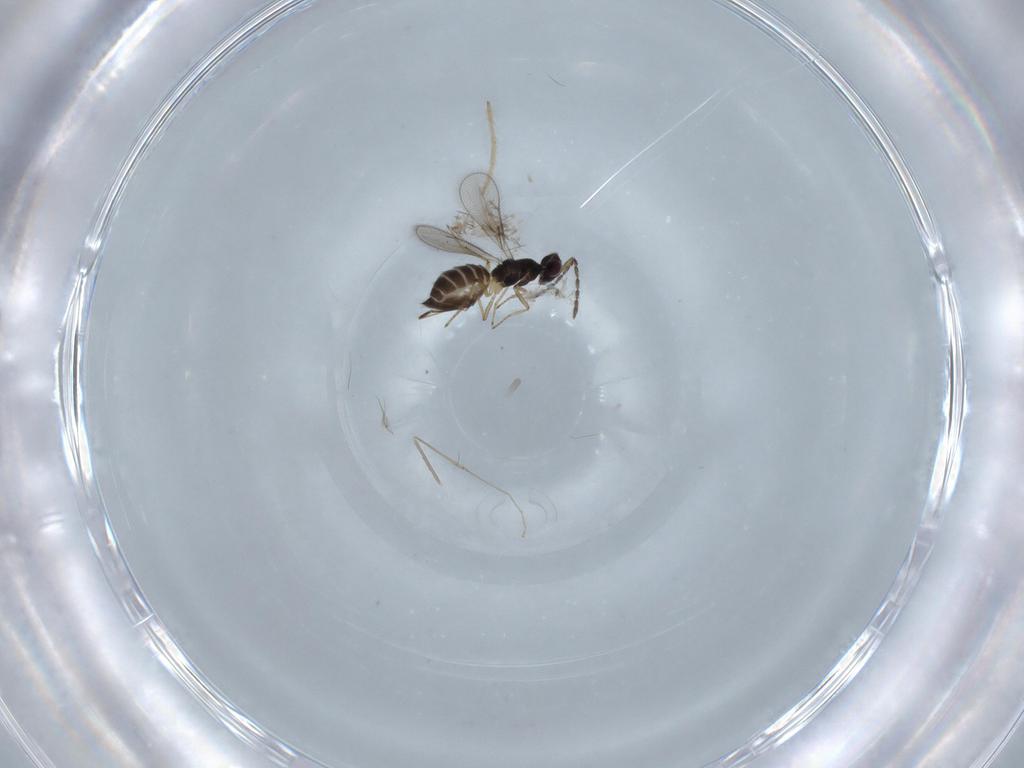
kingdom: Animalia
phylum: Arthropoda
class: Insecta
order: Diptera
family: Chironomidae
